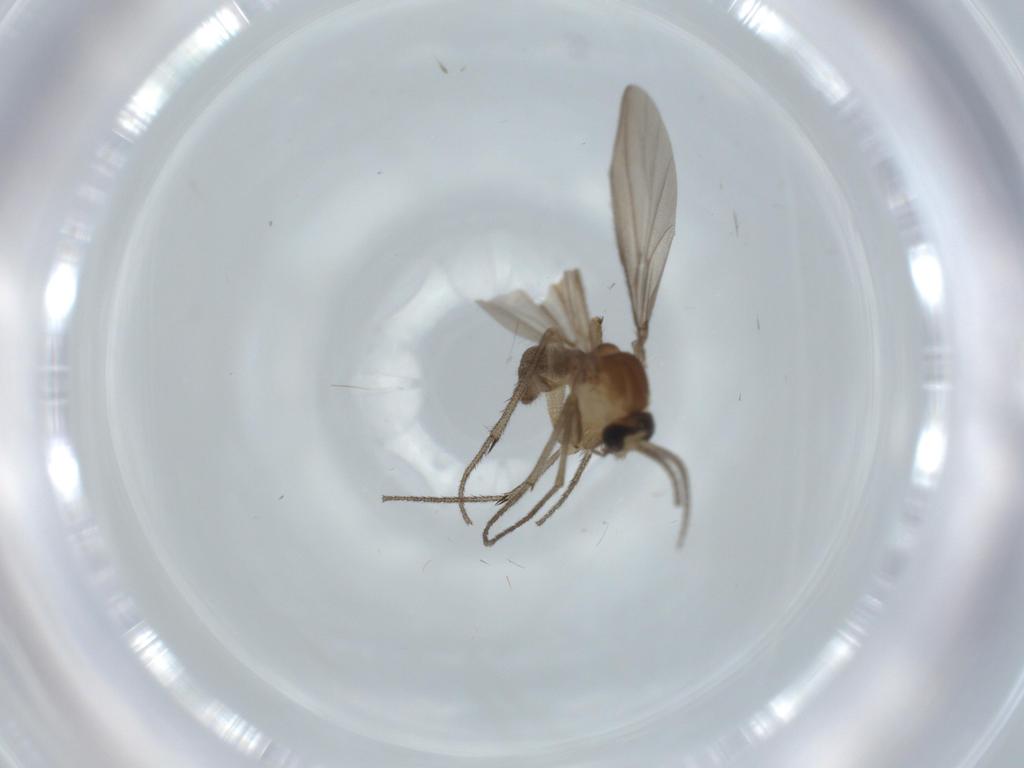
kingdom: Animalia
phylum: Arthropoda
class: Insecta
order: Diptera
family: Sciaridae
